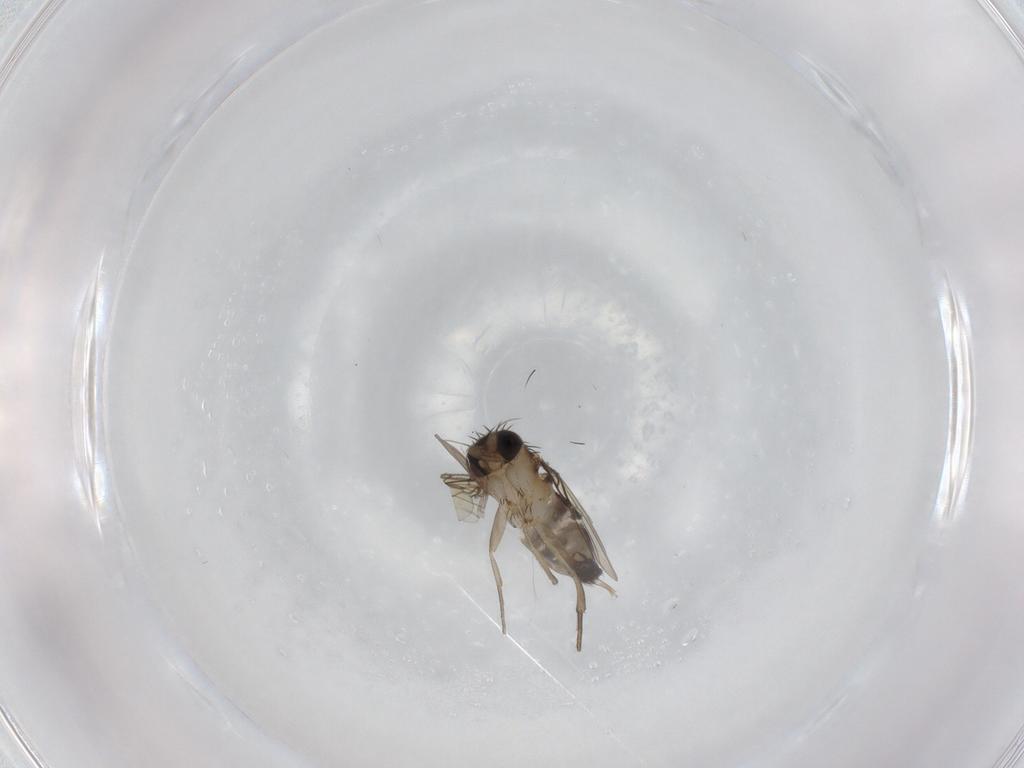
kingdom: Animalia
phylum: Arthropoda
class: Insecta
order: Diptera
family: Phoridae
